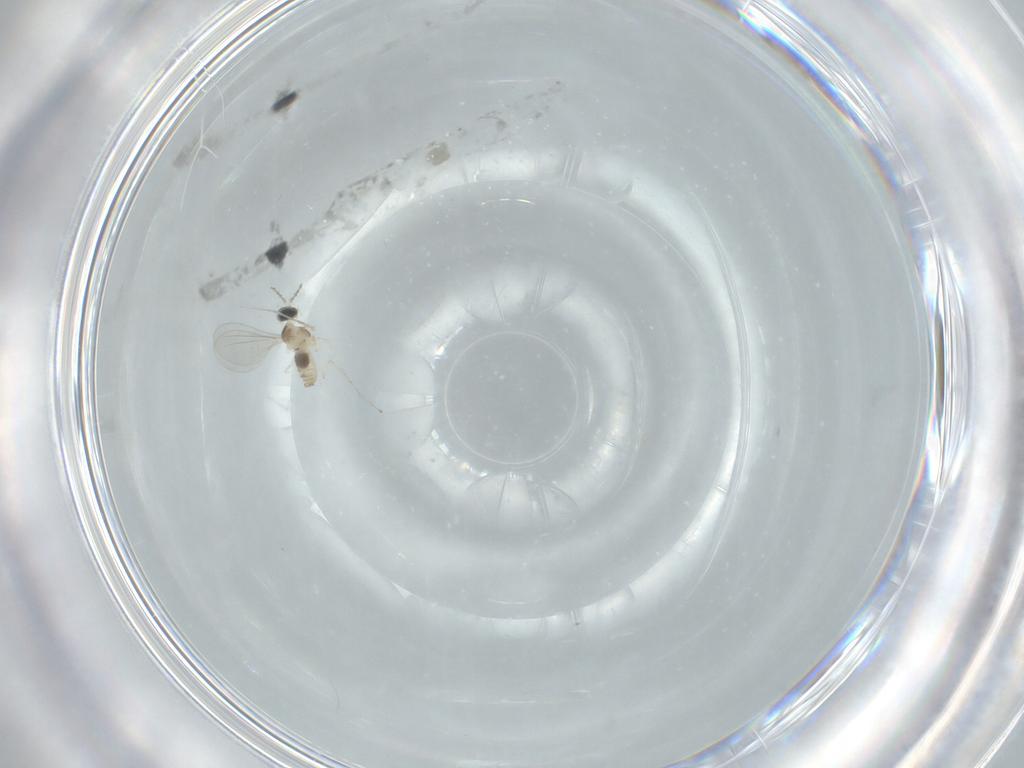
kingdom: Animalia
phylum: Arthropoda
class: Insecta
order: Diptera
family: Cecidomyiidae
